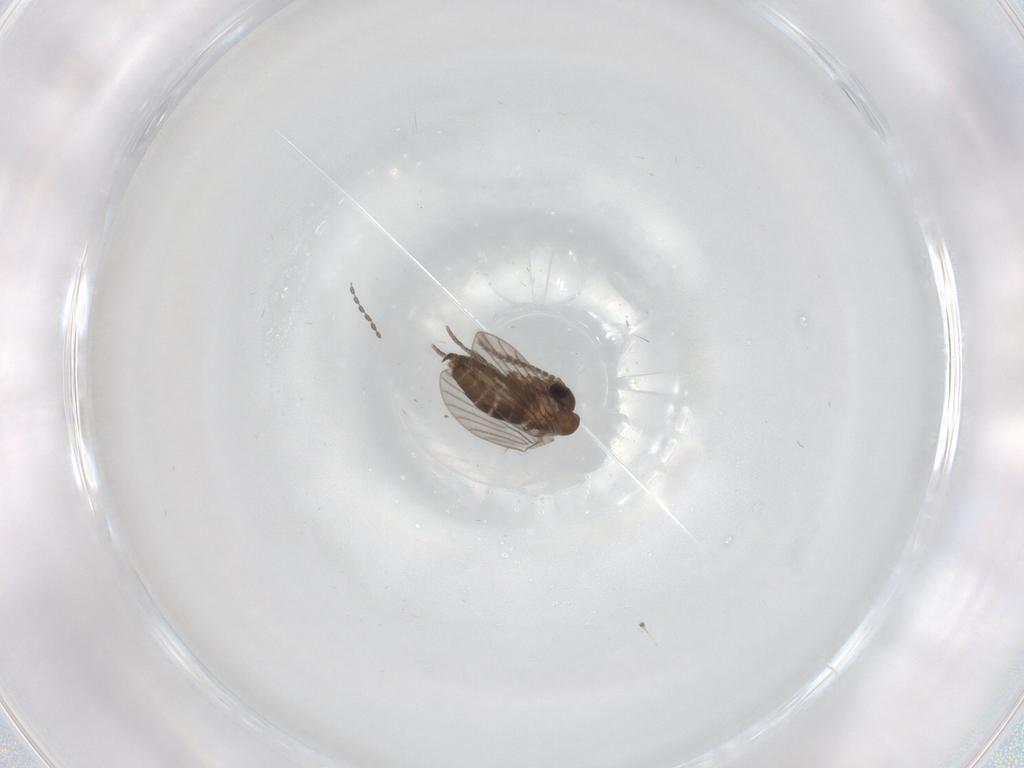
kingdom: Animalia
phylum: Arthropoda
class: Insecta
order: Diptera
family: Cecidomyiidae
